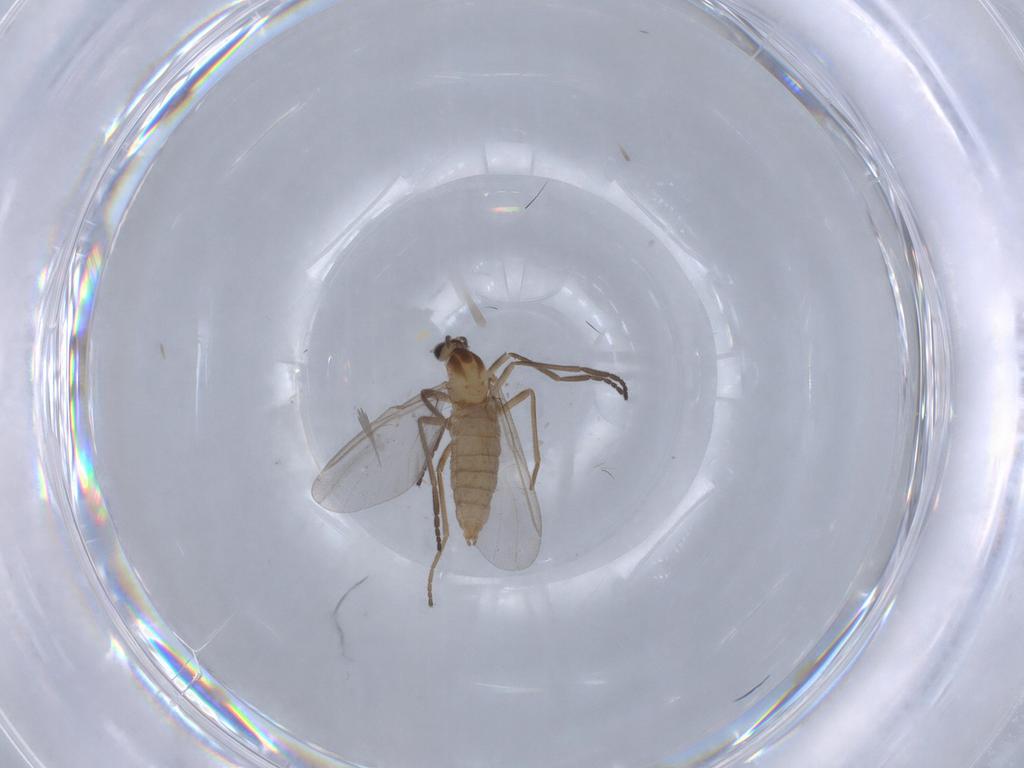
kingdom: Animalia
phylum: Arthropoda
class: Insecta
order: Diptera
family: Cecidomyiidae
